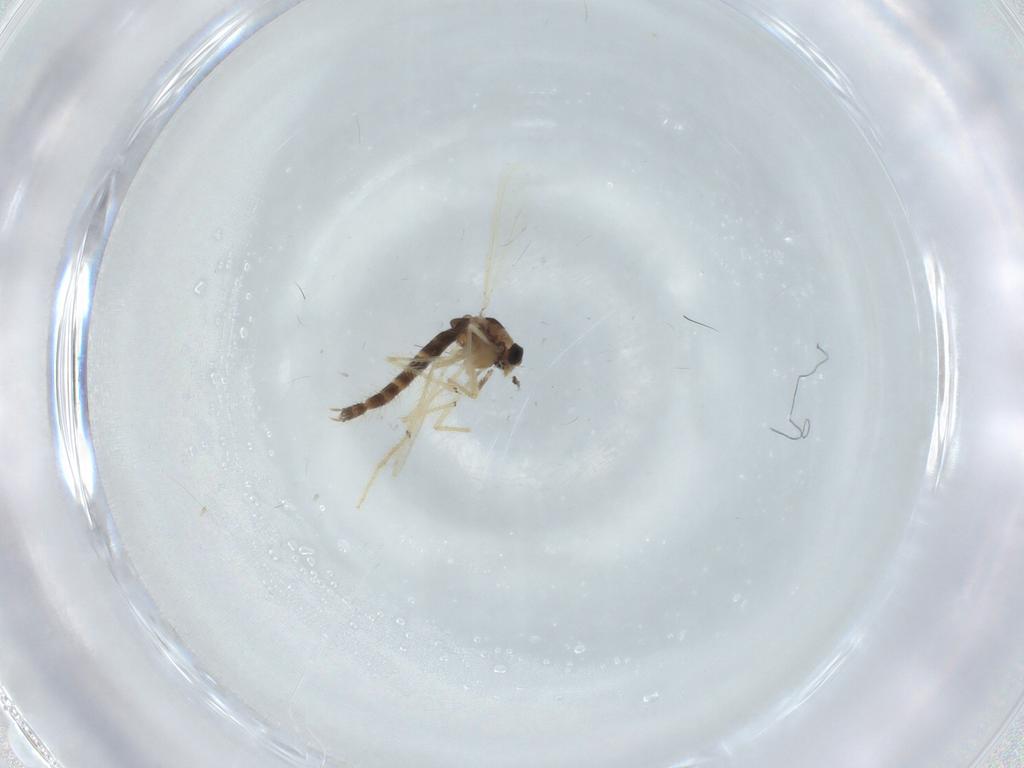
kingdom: Animalia
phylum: Arthropoda
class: Insecta
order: Diptera
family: Chironomidae
